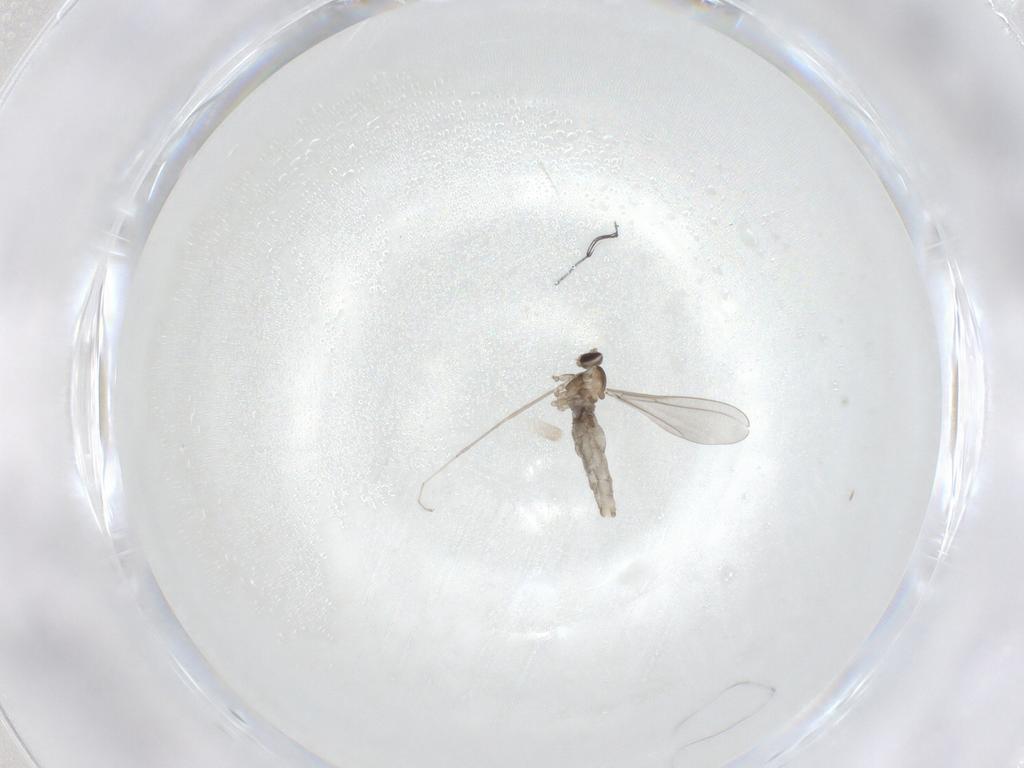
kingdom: Animalia
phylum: Arthropoda
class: Insecta
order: Diptera
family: Cecidomyiidae
